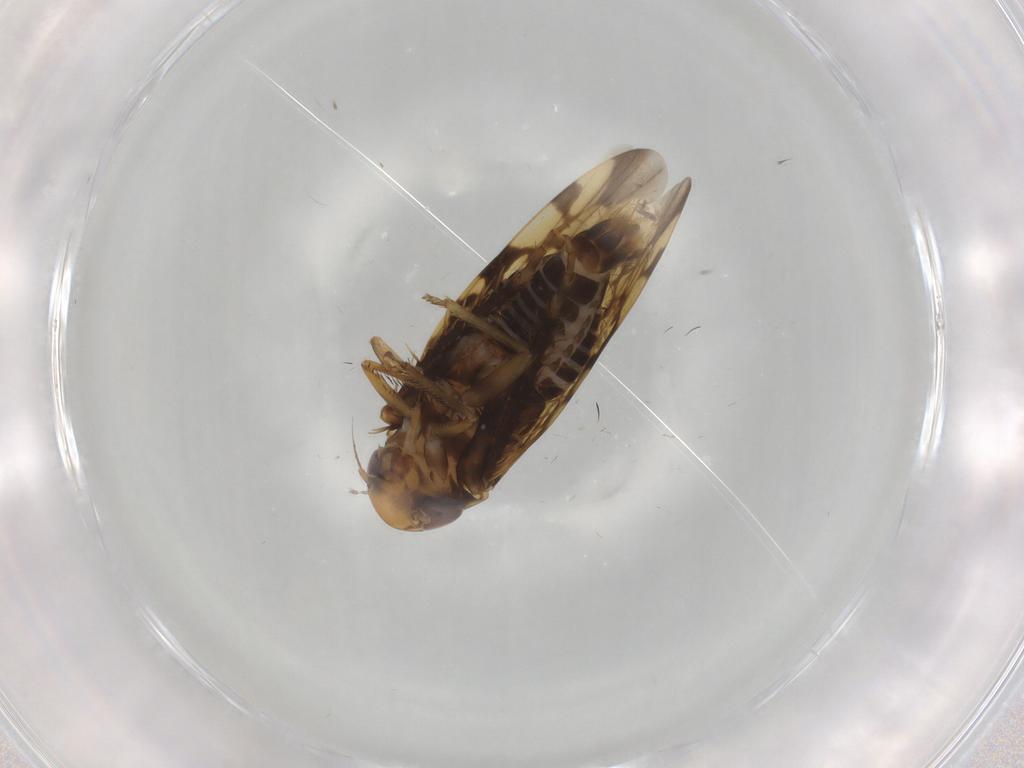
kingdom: Animalia
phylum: Arthropoda
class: Insecta
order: Hemiptera
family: Cicadellidae
